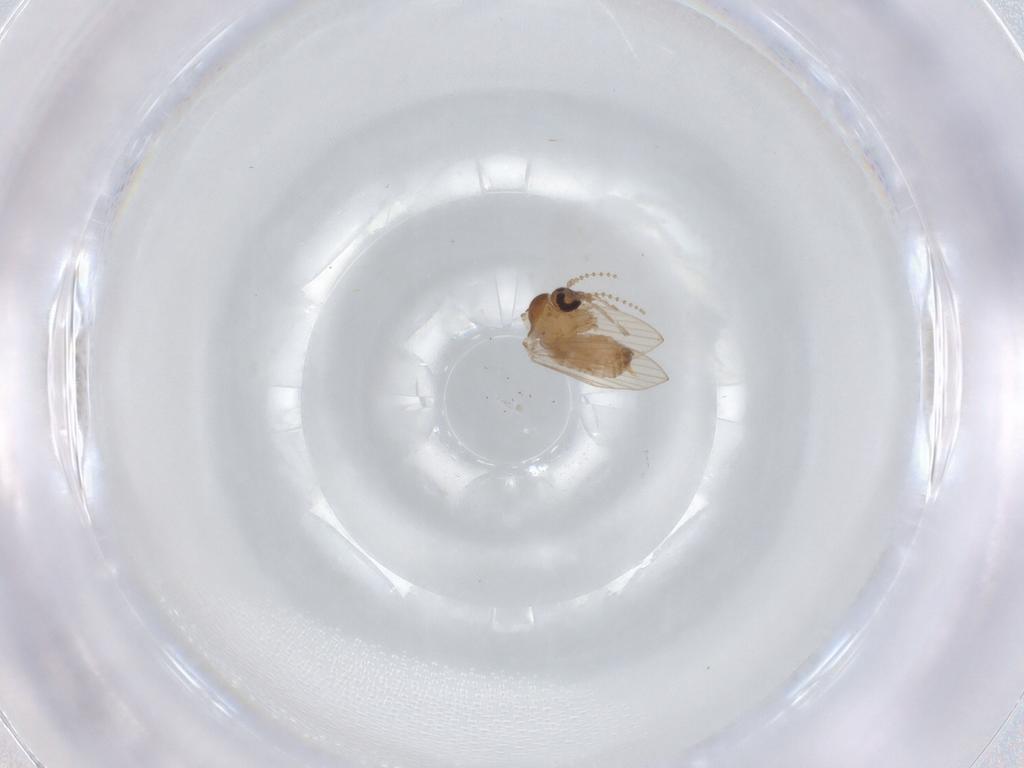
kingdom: Animalia
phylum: Arthropoda
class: Insecta
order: Diptera
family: Psychodidae
